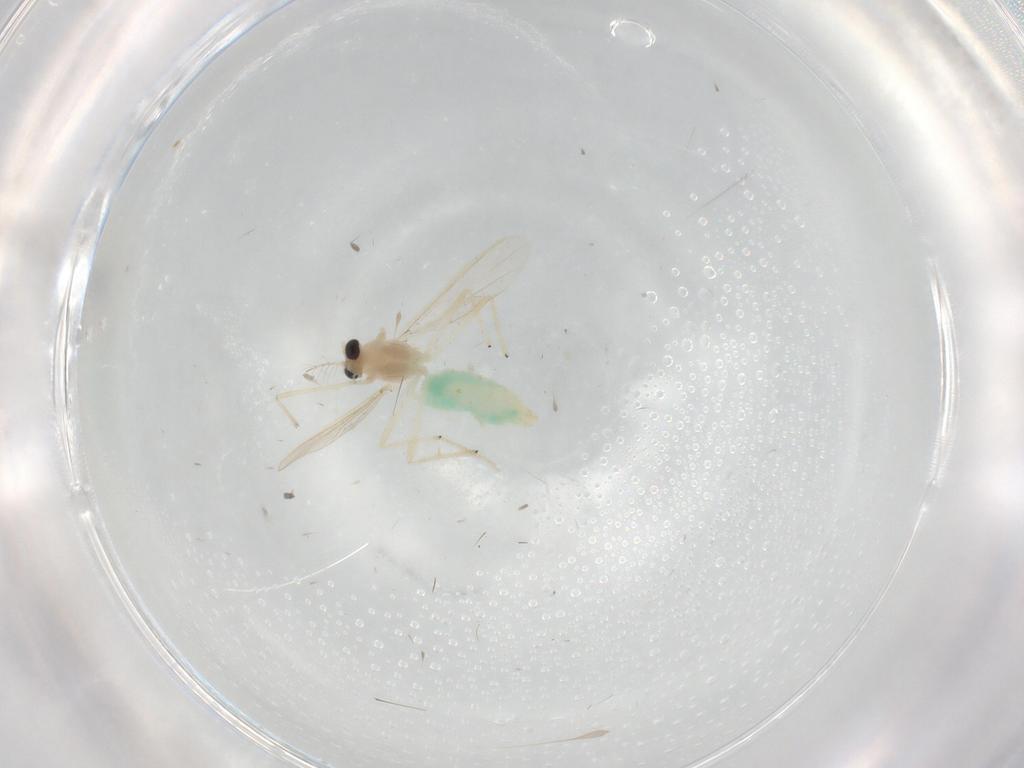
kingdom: Animalia
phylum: Arthropoda
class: Insecta
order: Diptera
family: Chironomidae
